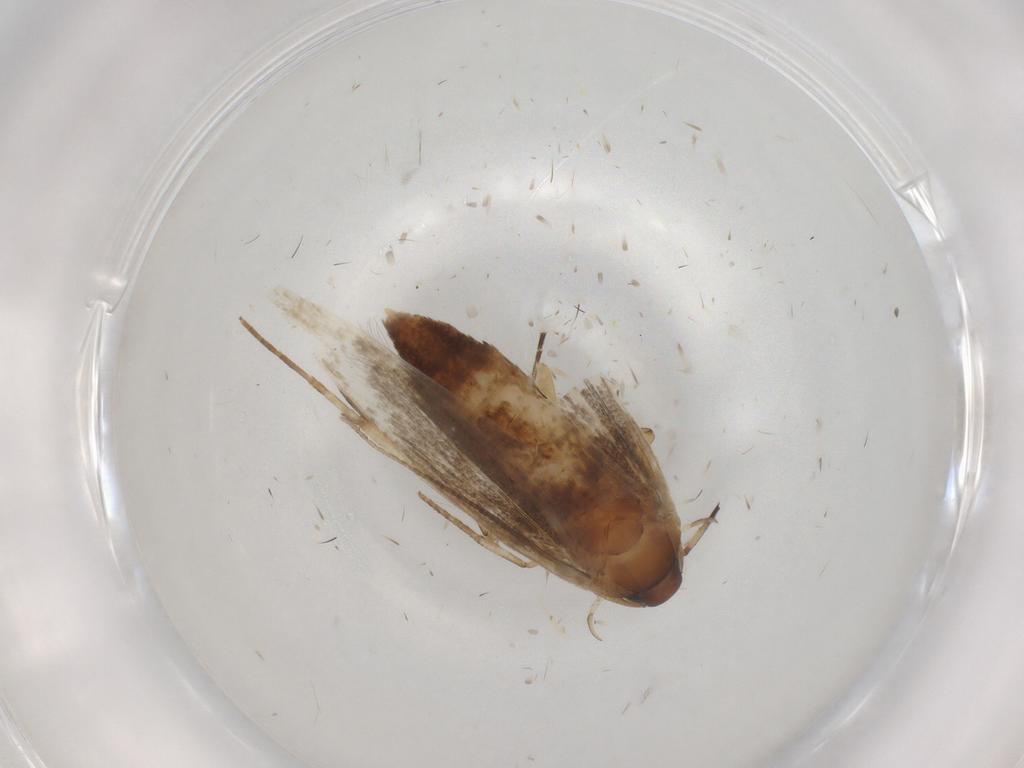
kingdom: Animalia
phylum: Arthropoda
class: Insecta
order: Lepidoptera
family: Cosmopterigidae
